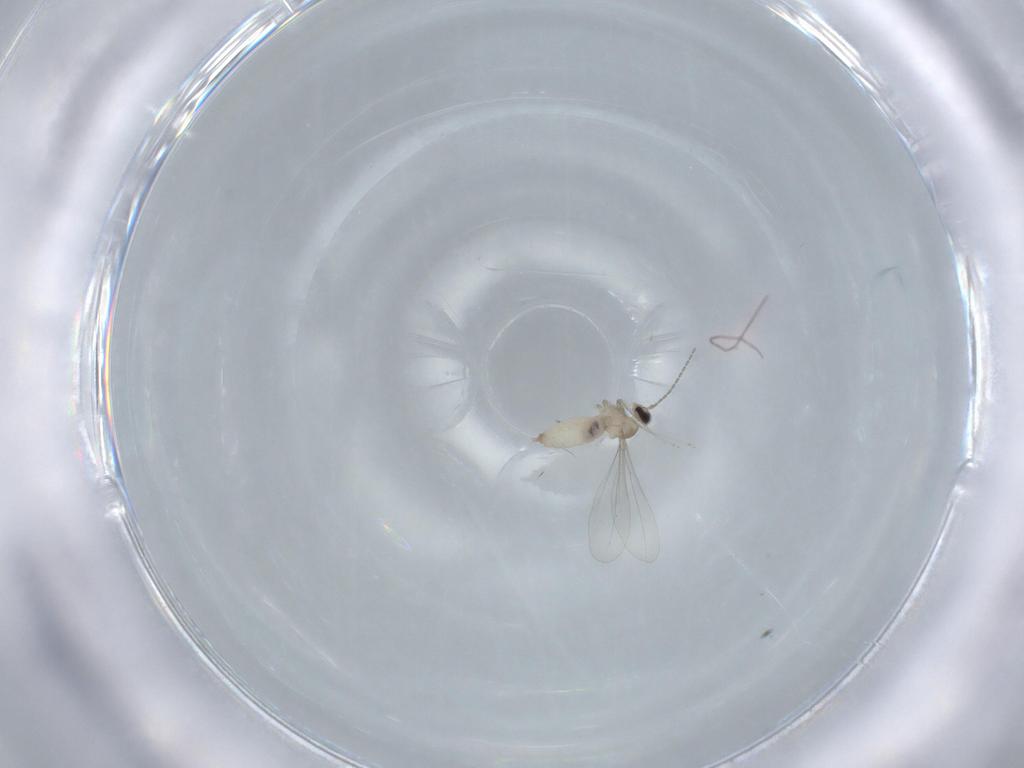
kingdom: Animalia
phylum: Arthropoda
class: Insecta
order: Diptera
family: Cecidomyiidae
